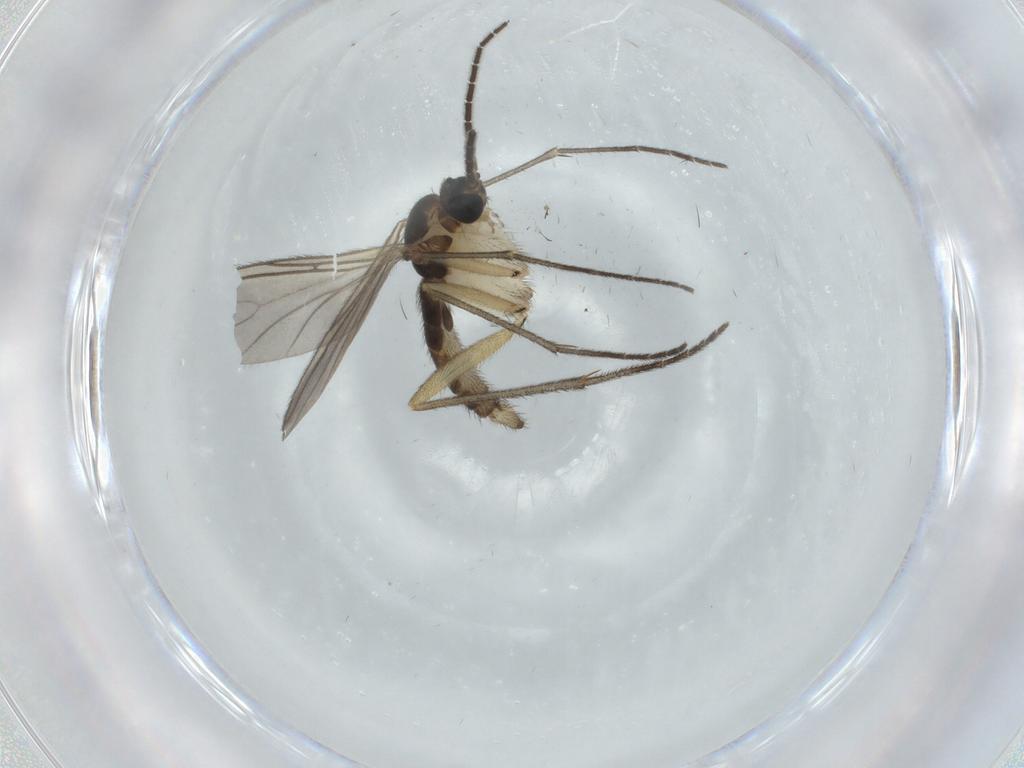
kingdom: Animalia
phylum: Arthropoda
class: Insecta
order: Diptera
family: Sciaridae
